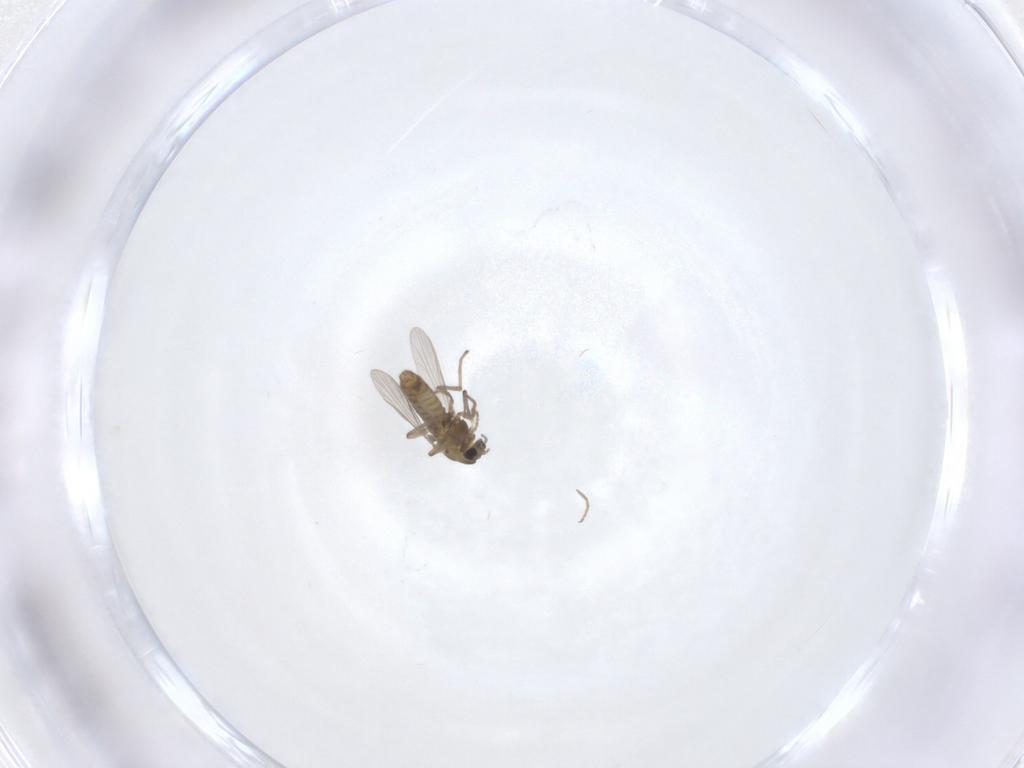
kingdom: Animalia
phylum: Arthropoda
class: Insecta
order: Diptera
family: Chironomidae
